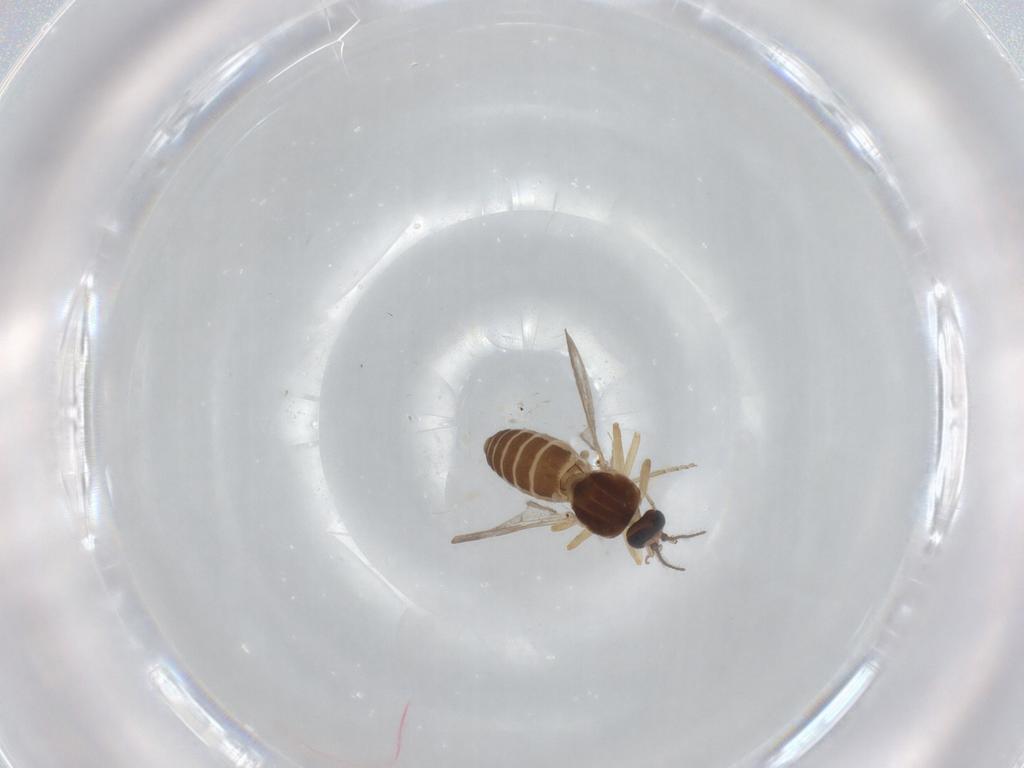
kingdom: Animalia
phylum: Arthropoda
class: Insecta
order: Diptera
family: Ceratopogonidae
